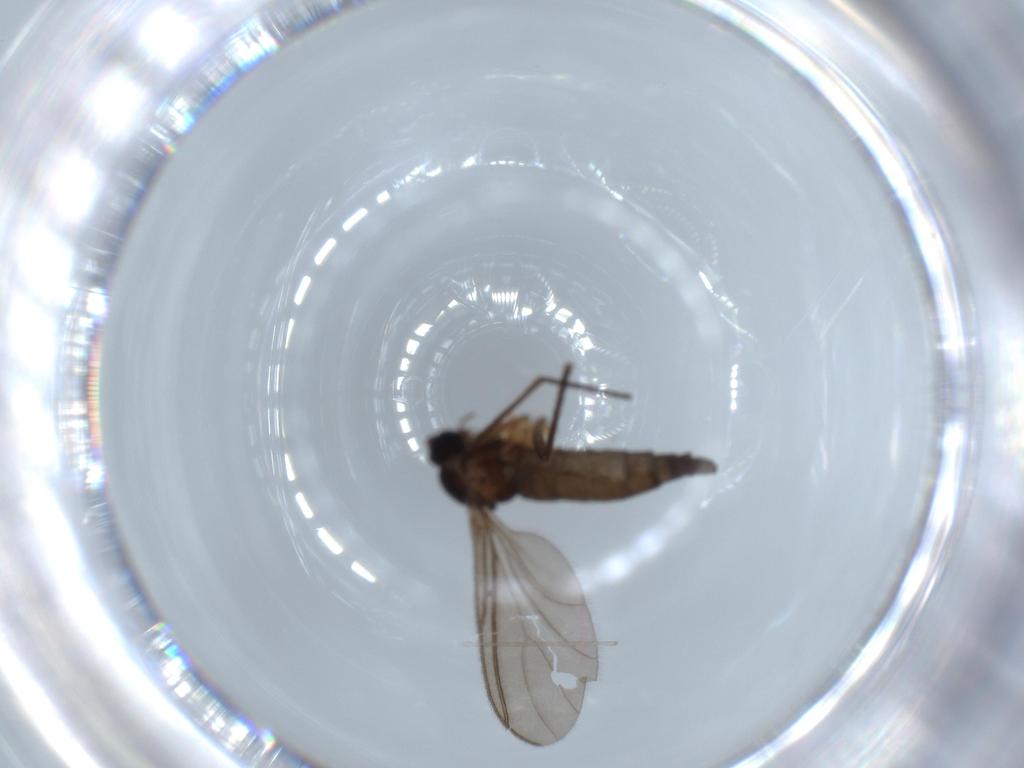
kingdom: Animalia
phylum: Arthropoda
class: Insecta
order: Diptera
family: Sciaridae
